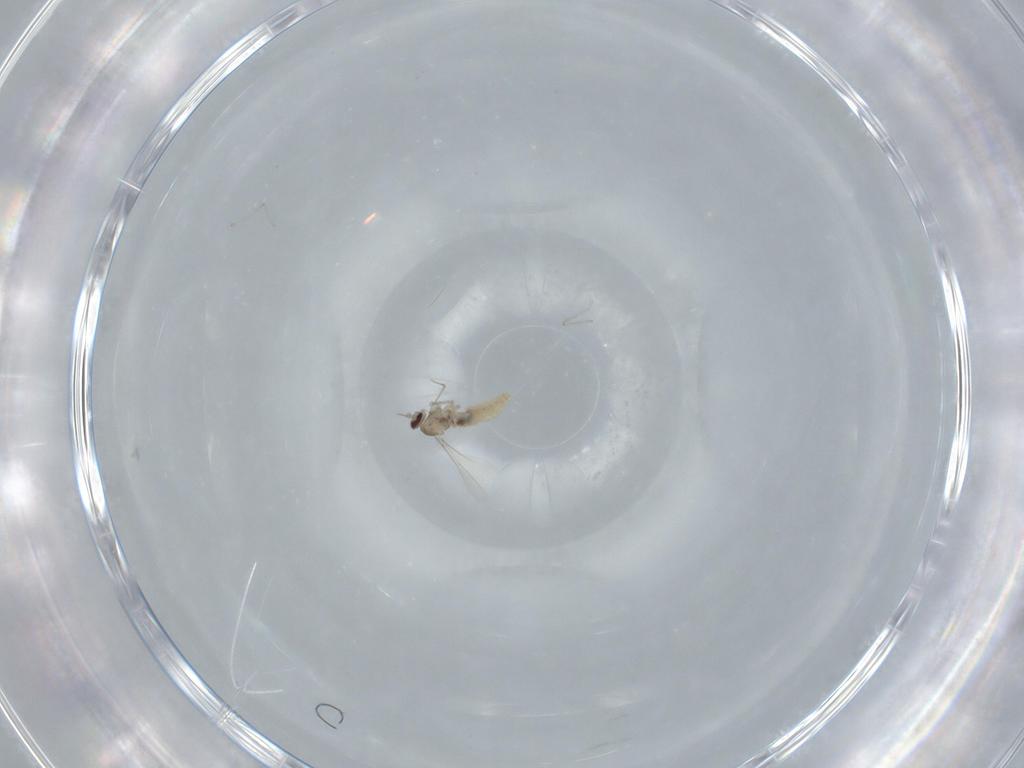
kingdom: Animalia
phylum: Arthropoda
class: Insecta
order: Diptera
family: Cecidomyiidae
